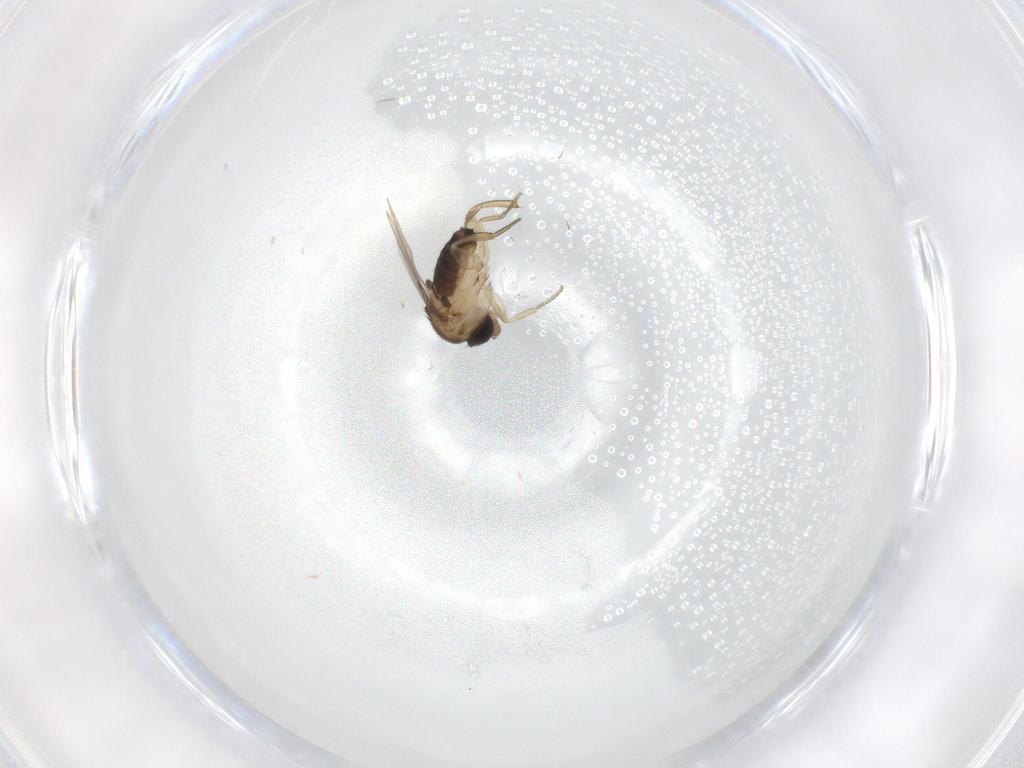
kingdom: Animalia
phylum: Arthropoda
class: Insecta
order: Diptera
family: Phoridae
